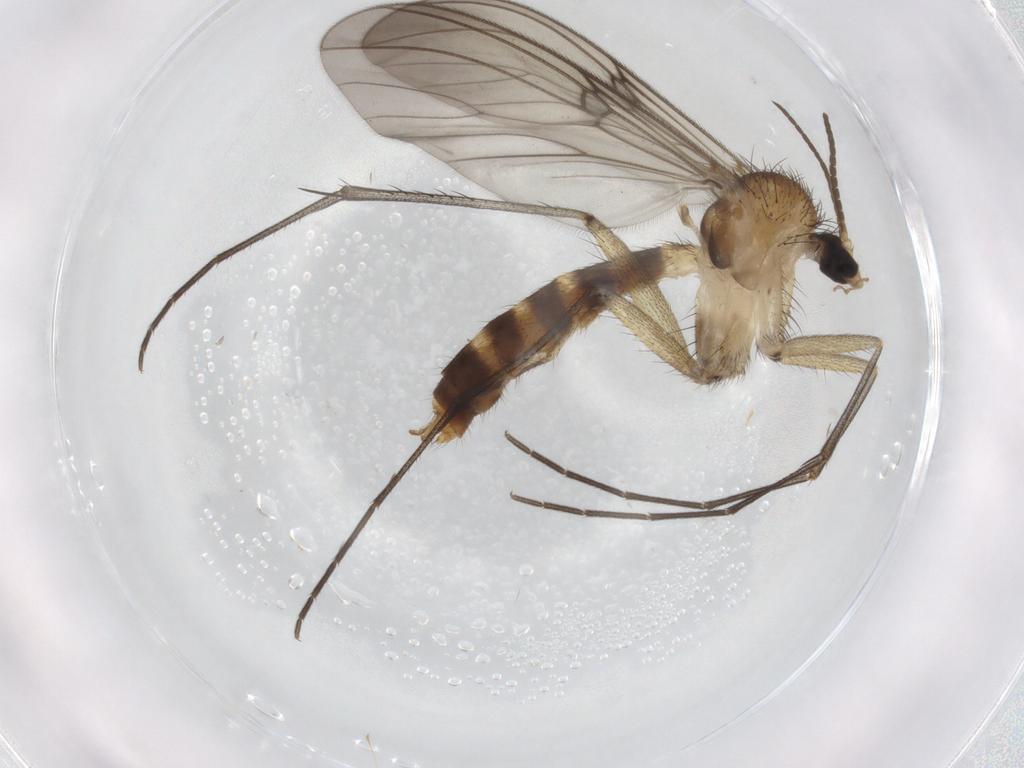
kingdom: Animalia
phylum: Arthropoda
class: Insecta
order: Diptera
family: Mycetophilidae
